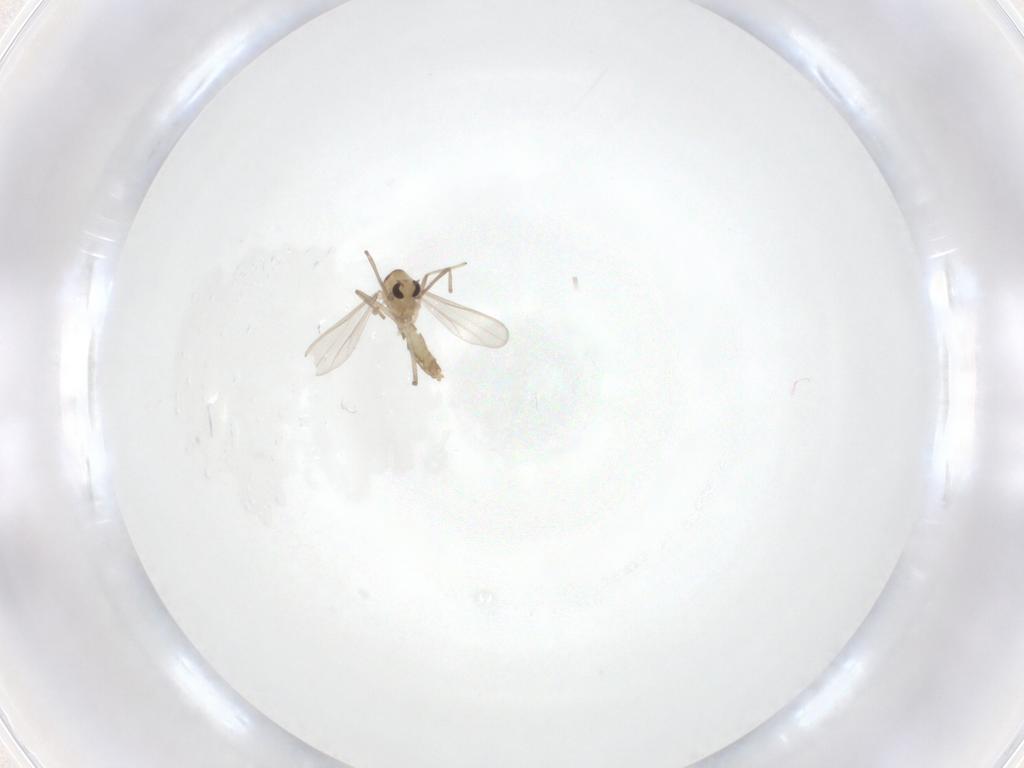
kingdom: Animalia
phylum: Arthropoda
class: Insecta
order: Diptera
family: Chironomidae
